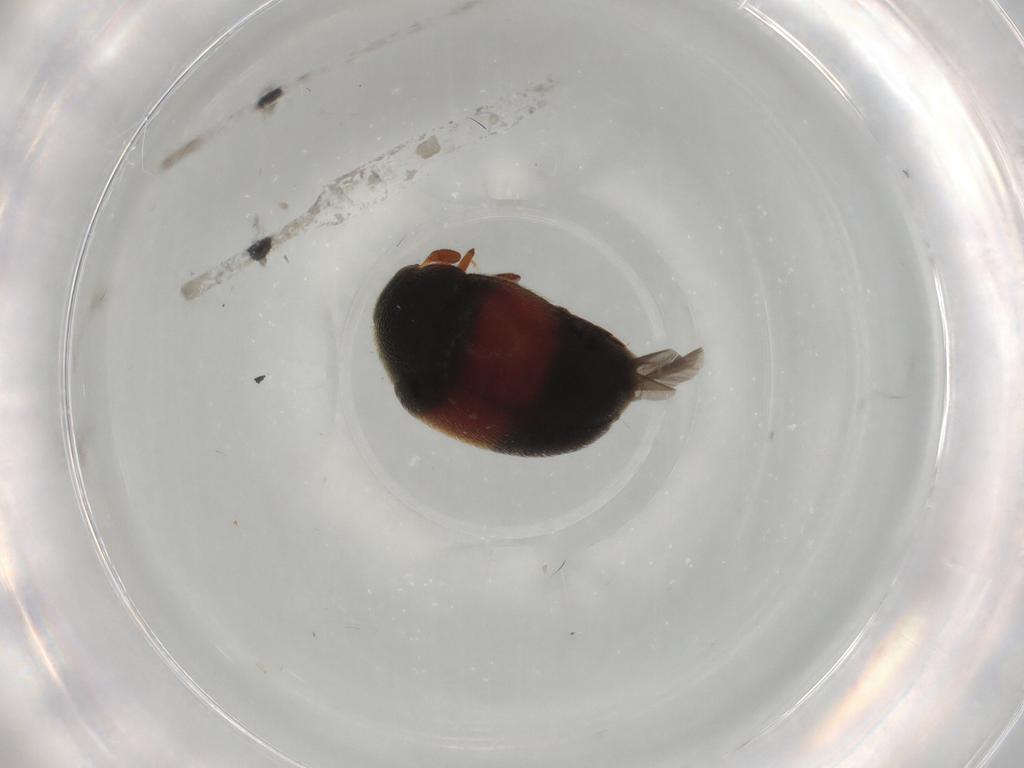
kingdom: Animalia
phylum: Arthropoda
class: Insecta
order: Coleoptera
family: Dermestidae
